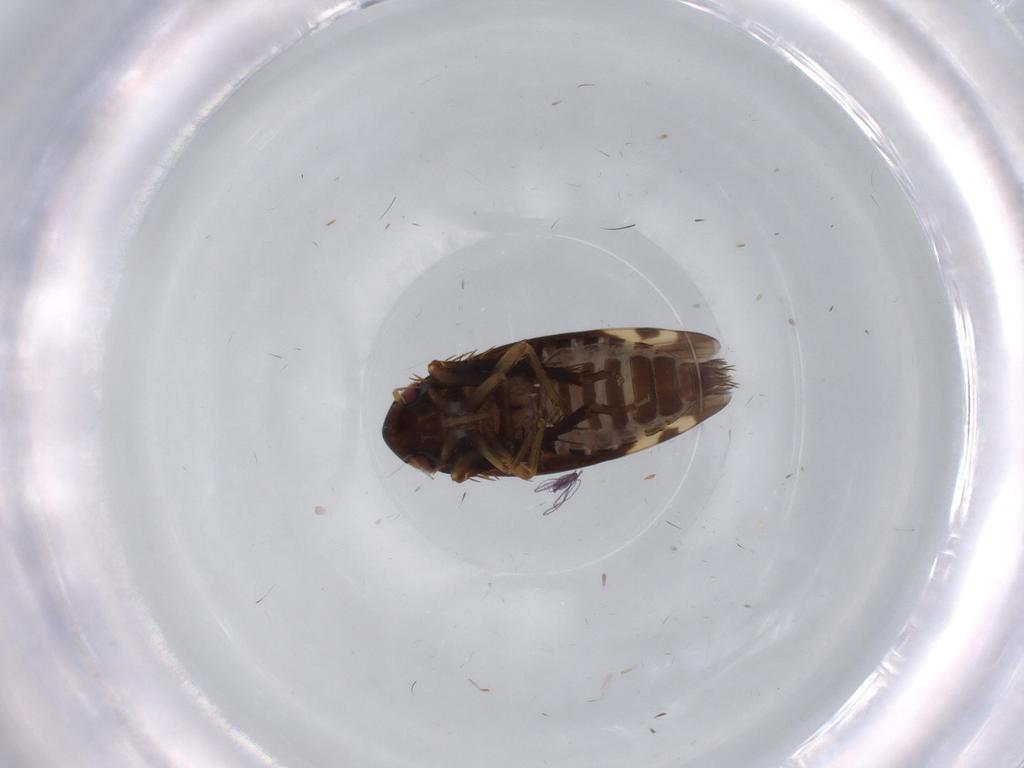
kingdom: Animalia
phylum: Arthropoda
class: Insecta
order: Hemiptera
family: Cicadellidae
